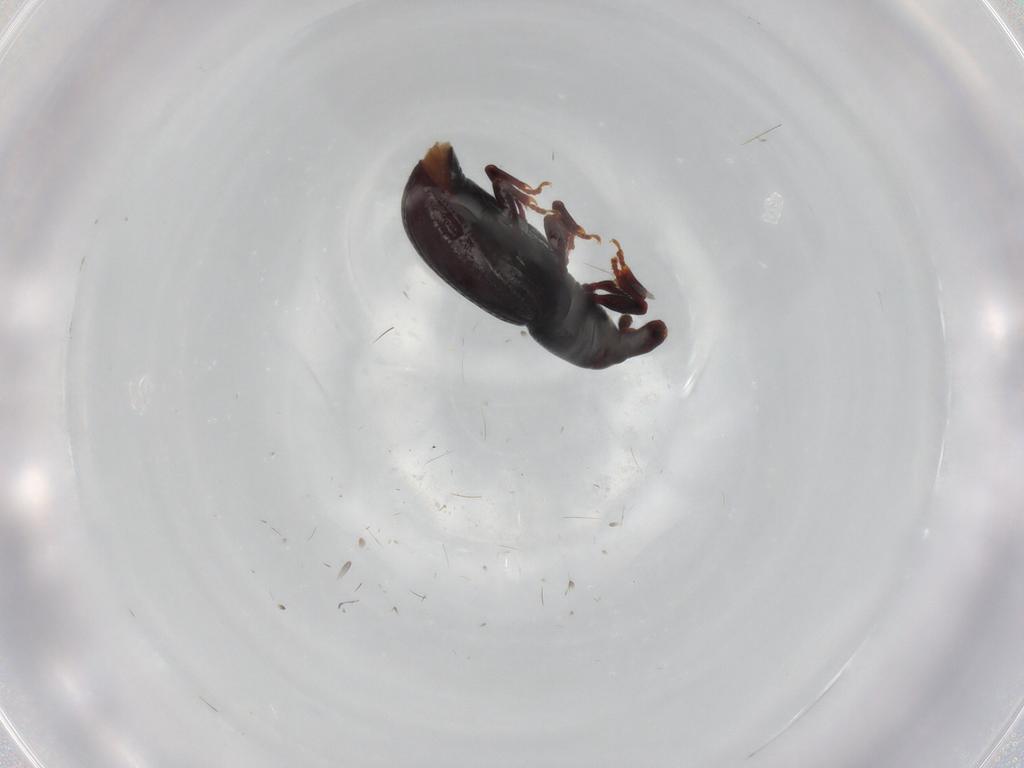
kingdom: Animalia
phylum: Arthropoda
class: Insecta
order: Coleoptera
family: Curculionidae
